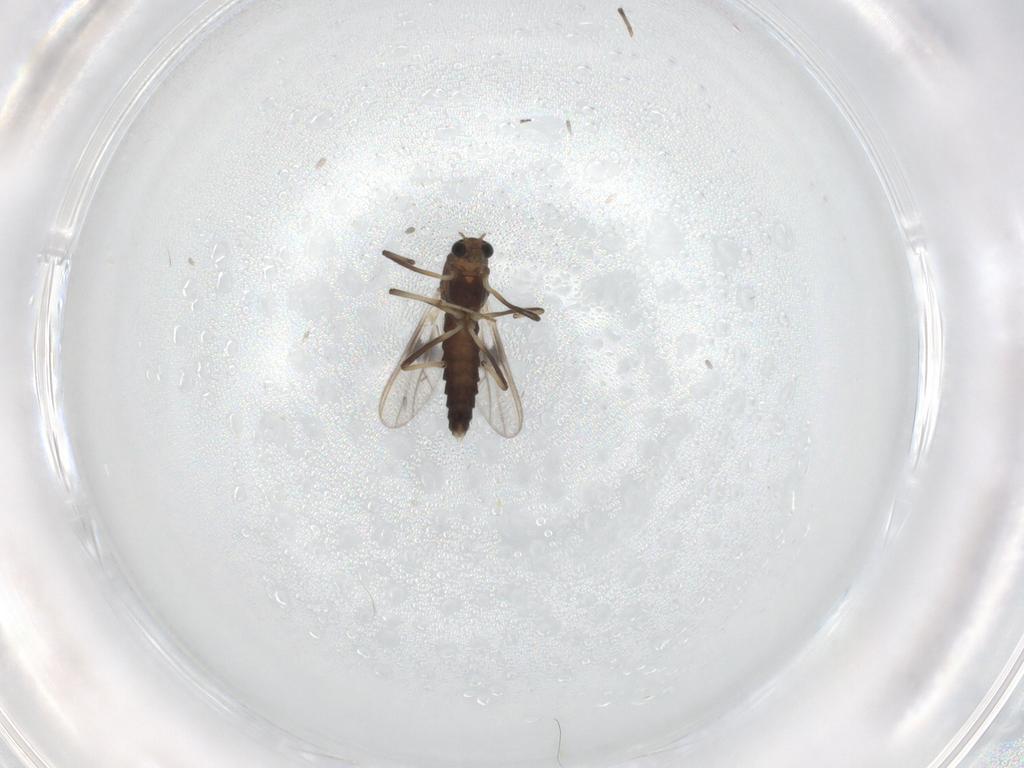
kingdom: Animalia
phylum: Arthropoda
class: Insecta
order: Diptera
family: Chironomidae
